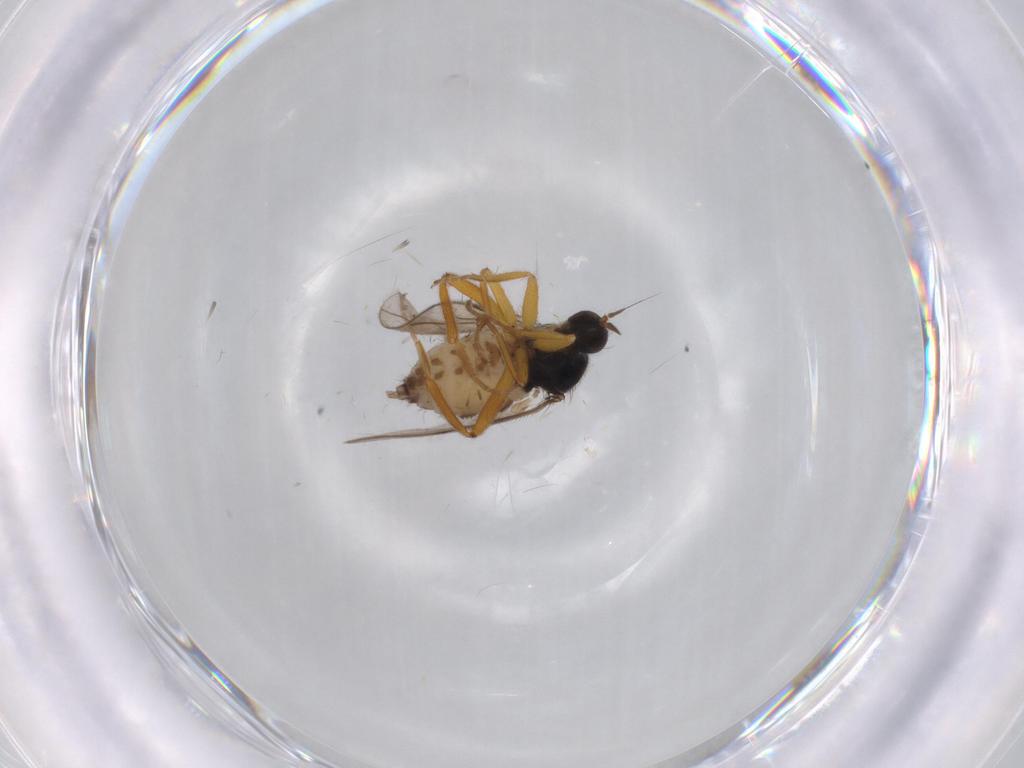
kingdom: Animalia
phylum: Arthropoda
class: Insecta
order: Diptera
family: Hybotidae
